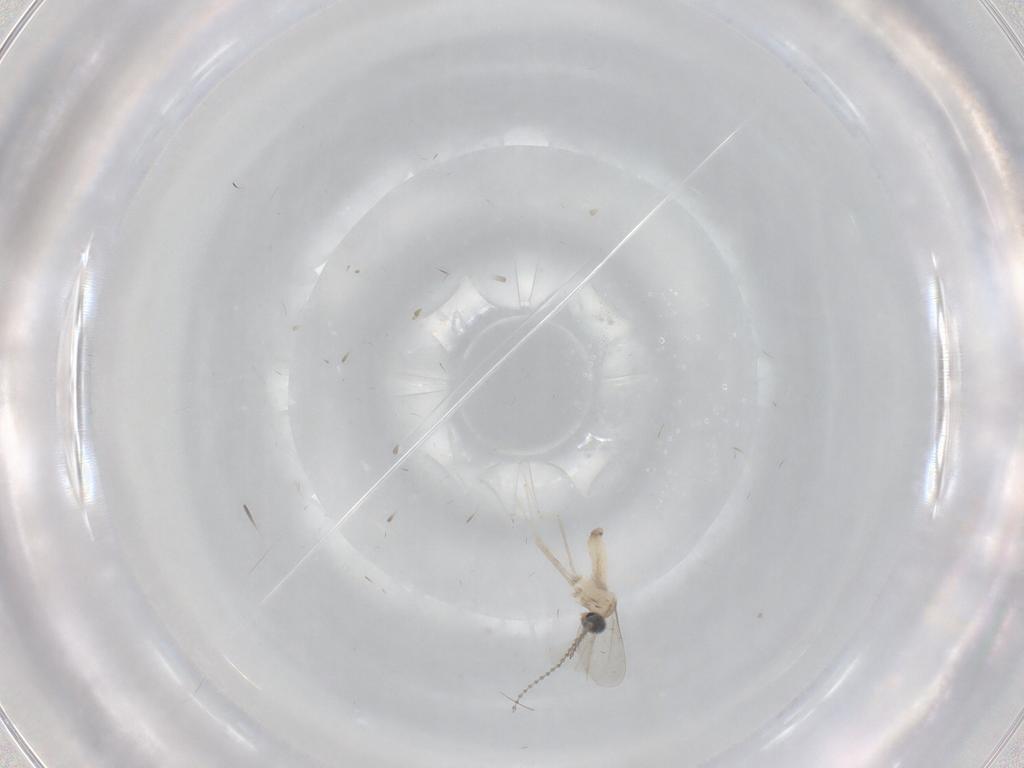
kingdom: Animalia
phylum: Arthropoda
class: Insecta
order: Diptera
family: Cecidomyiidae
